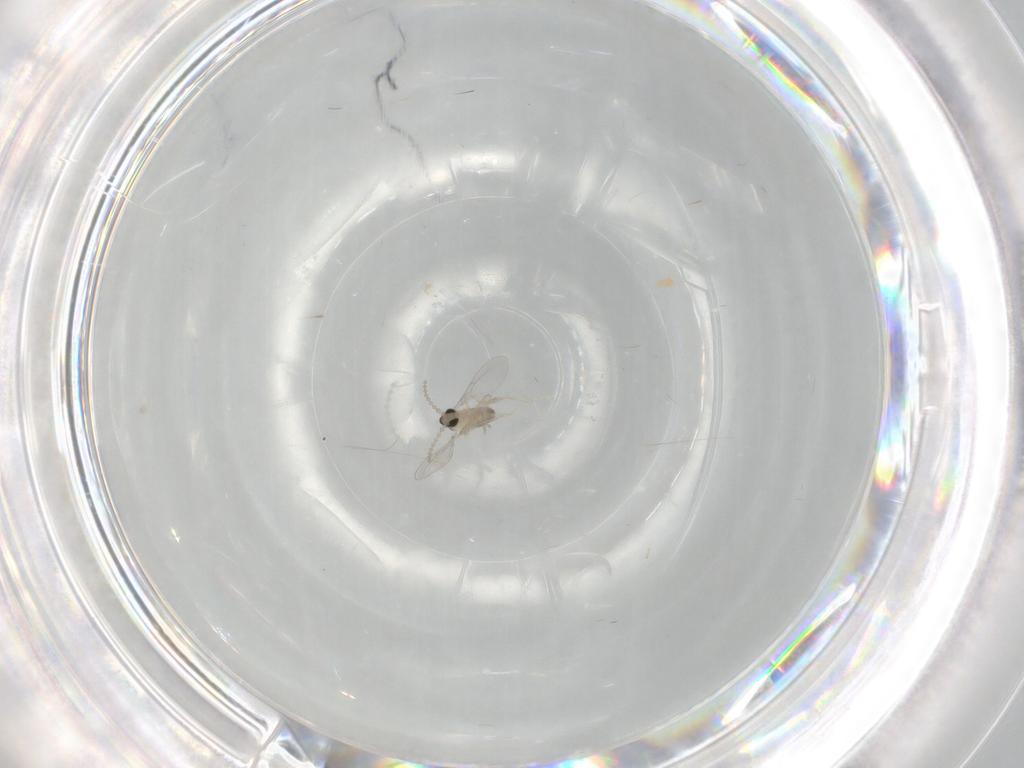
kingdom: Animalia
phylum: Arthropoda
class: Insecta
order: Diptera
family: Cecidomyiidae
